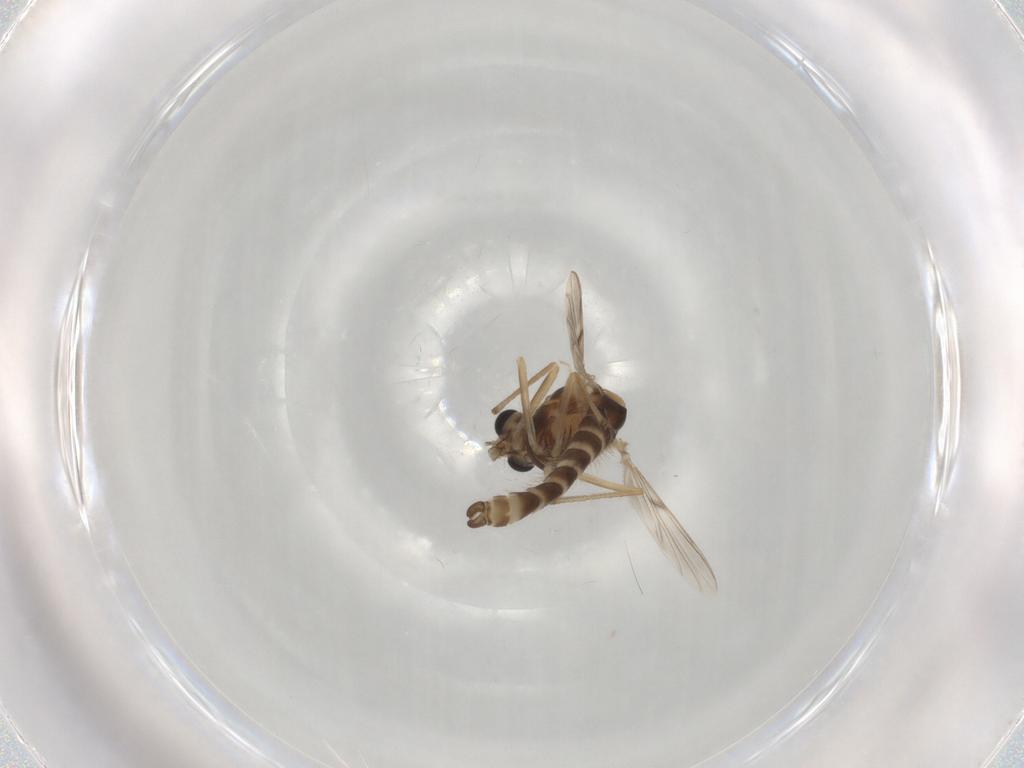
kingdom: Animalia
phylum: Arthropoda
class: Insecta
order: Diptera
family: Chironomidae
